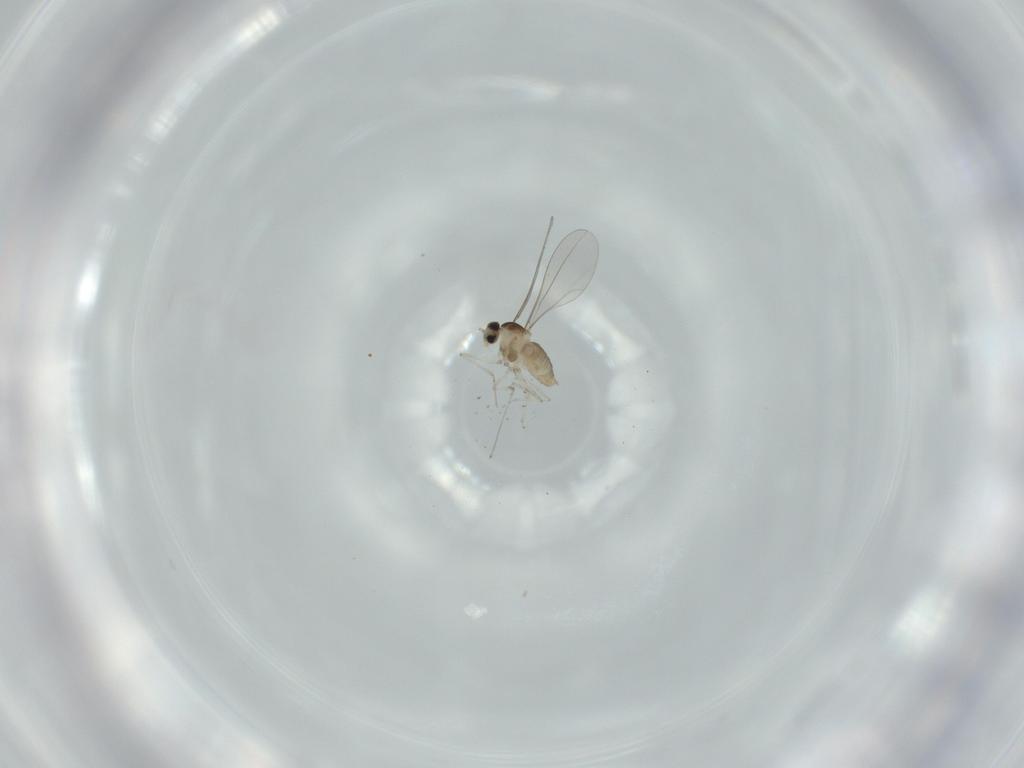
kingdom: Animalia
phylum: Arthropoda
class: Insecta
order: Diptera
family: Cecidomyiidae
